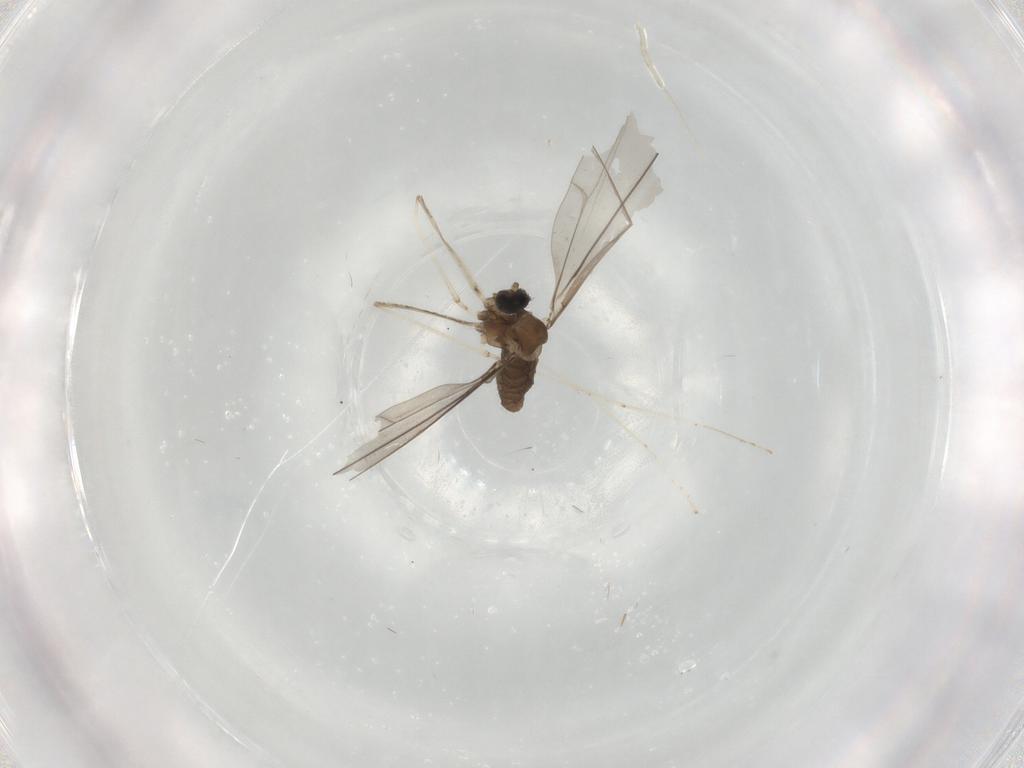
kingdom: Animalia
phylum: Arthropoda
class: Insecta
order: Diptera
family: Cecidomyiidae
